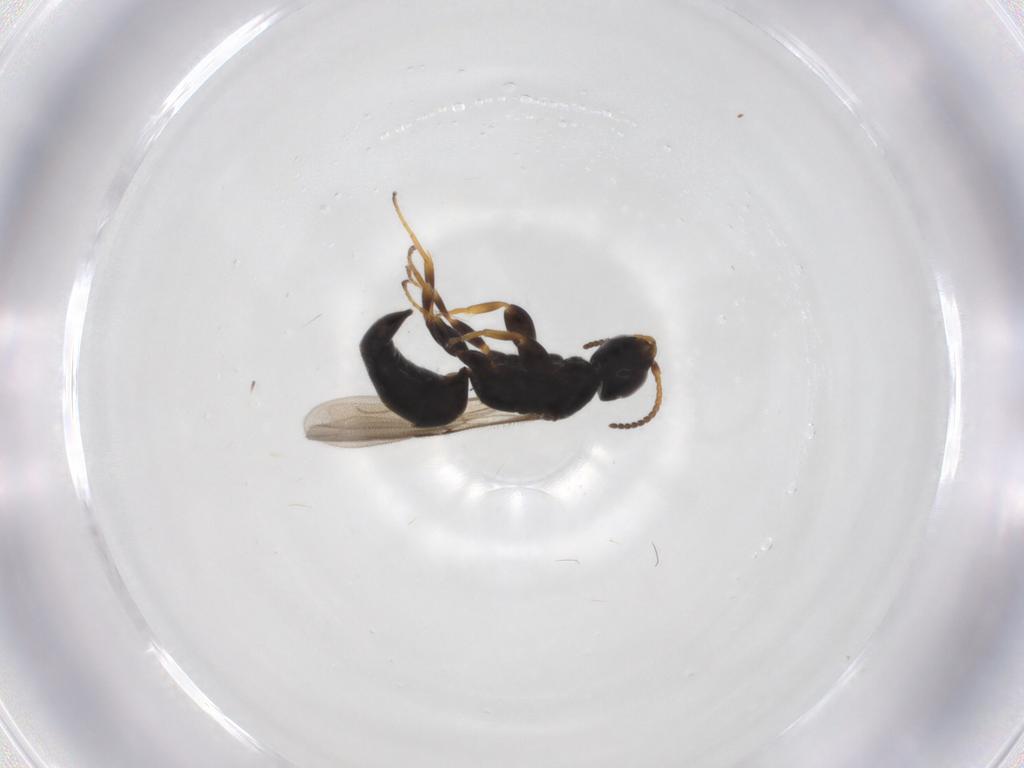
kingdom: Animalia
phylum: Arthropoda
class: Insecta
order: Hymenoptera
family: Bethylidae
